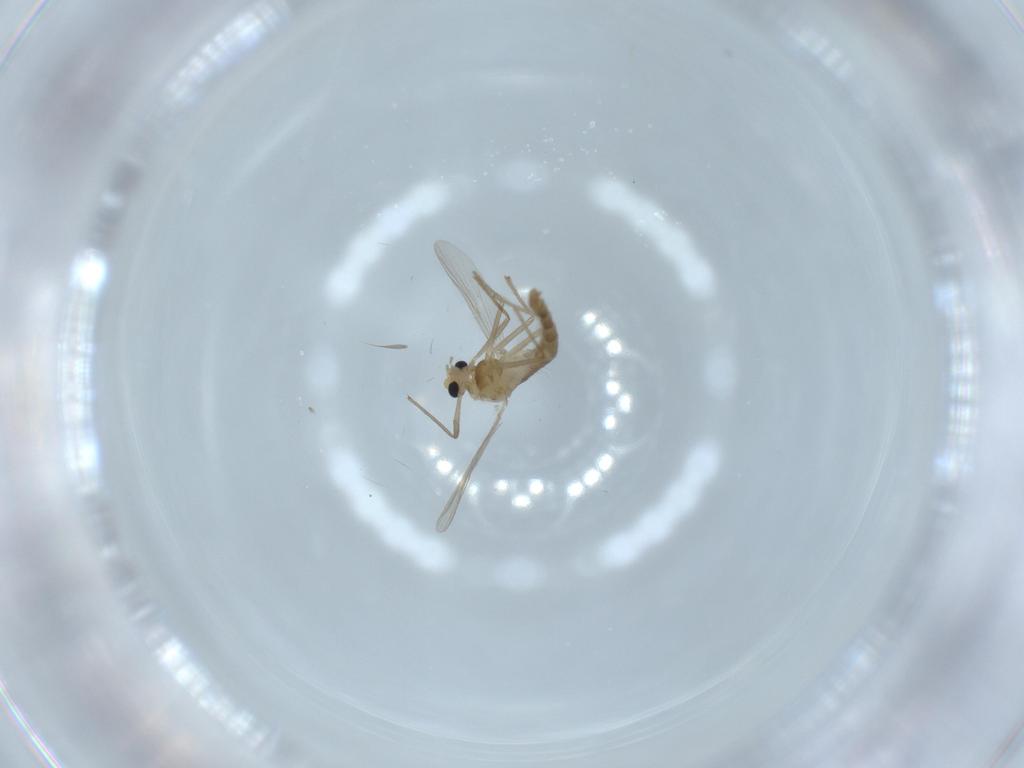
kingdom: Animalia
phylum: Arthropoda
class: Insecta
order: Diptera
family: Chironomidae
